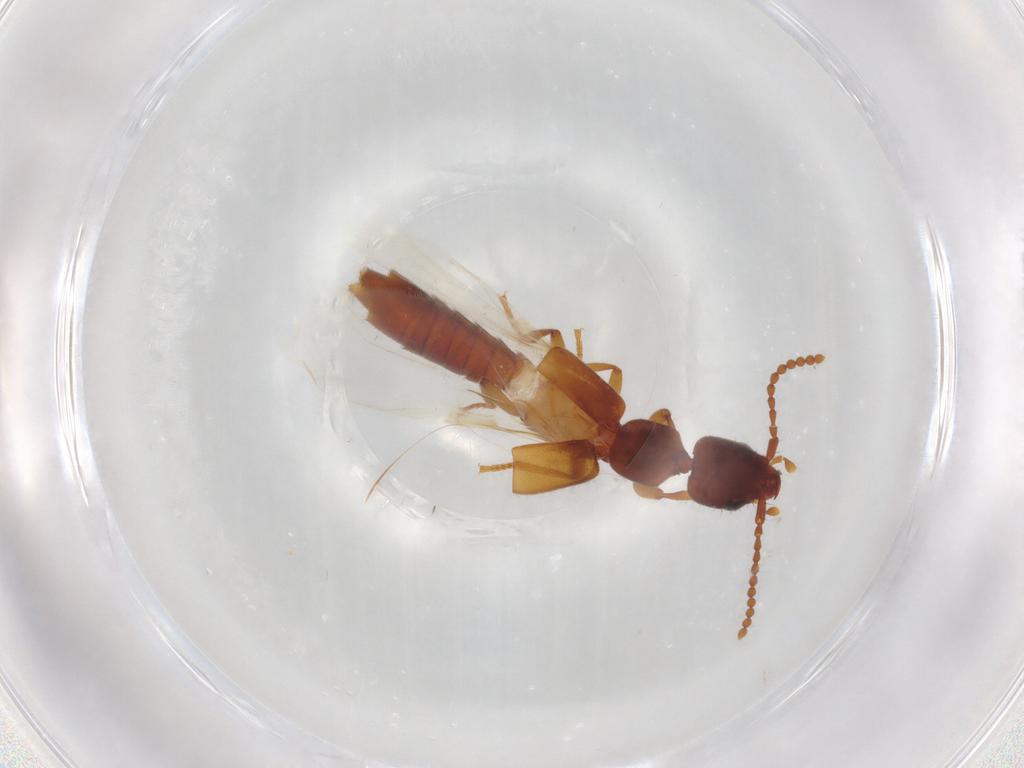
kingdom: Animalia
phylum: Arthropoda
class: Insecta
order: Coleoptera
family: Staphylinidae
